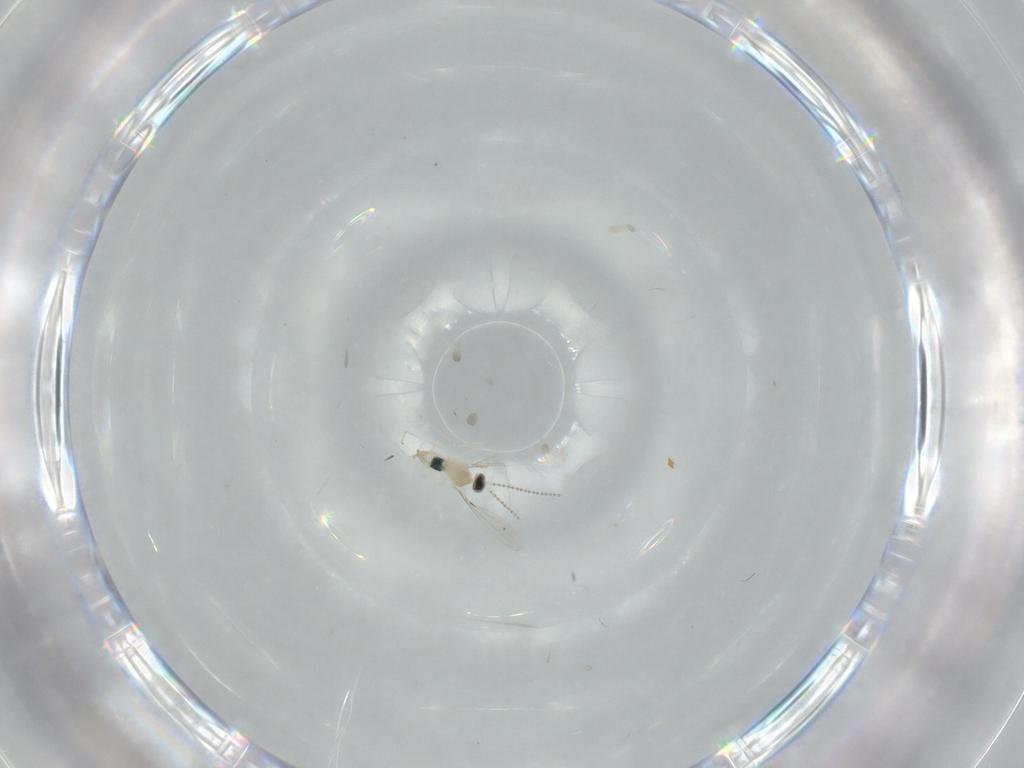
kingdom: Animalia
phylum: Arthropoda
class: Insecta
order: Diptera
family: Cecidomyiidae
